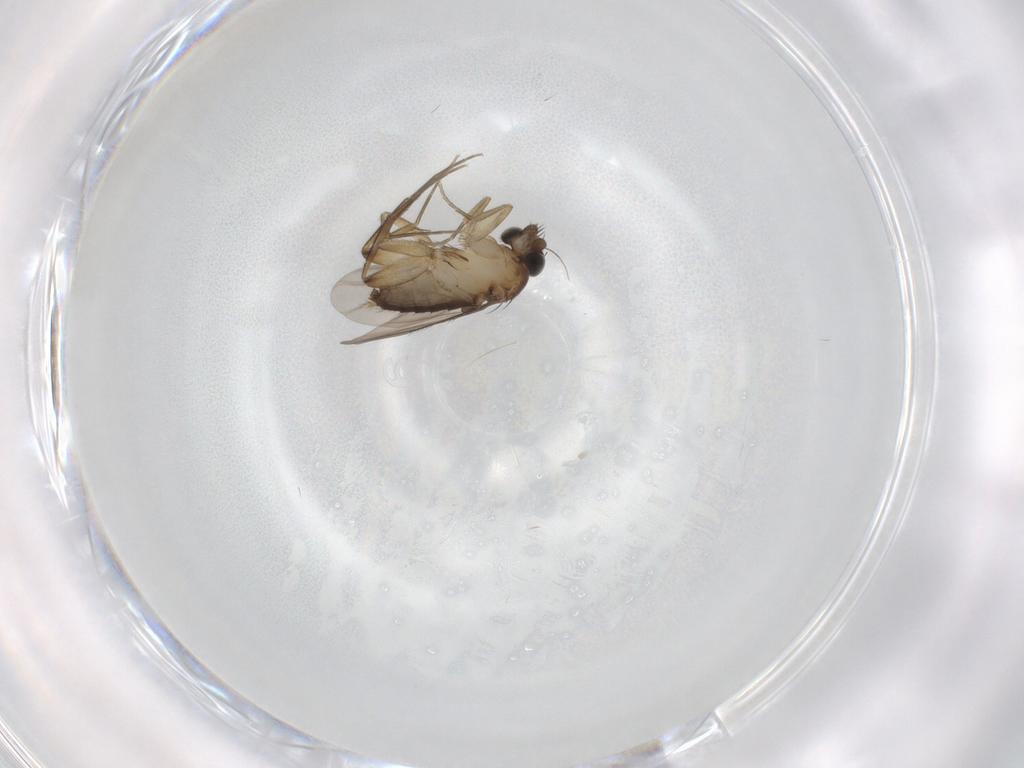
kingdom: Animalia
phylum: Arthropoda
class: Insecta
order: Diptera
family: Phoridae
